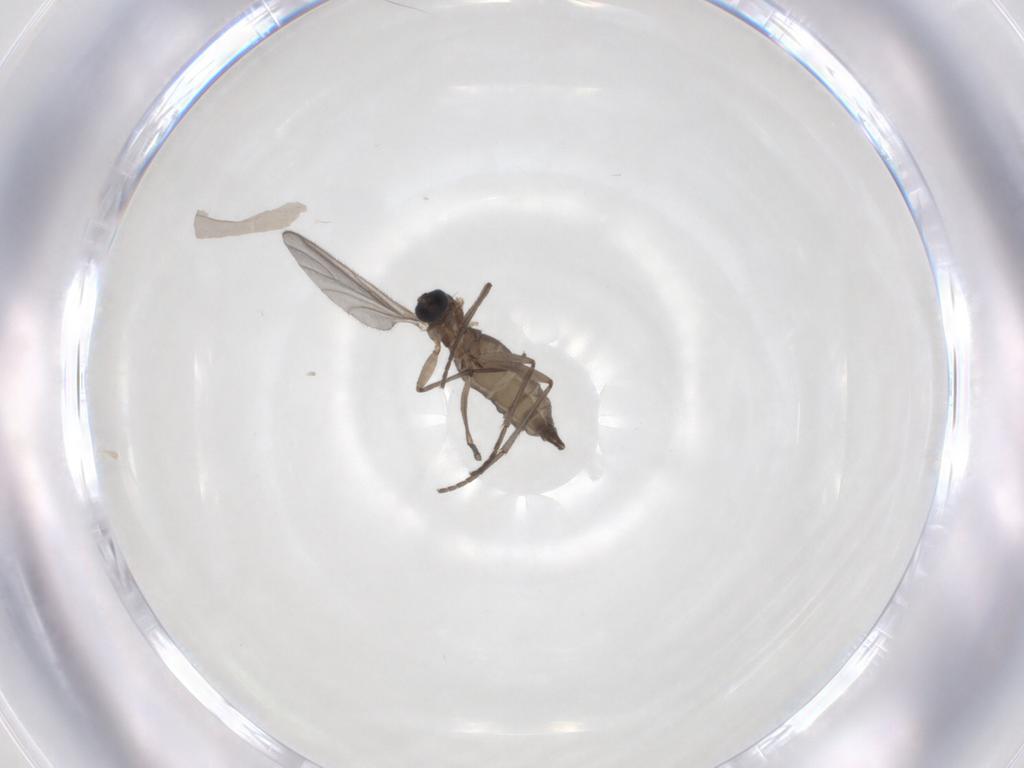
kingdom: Animalia
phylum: Arthropoda
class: Insecta
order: Diptera
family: Sciaridae
